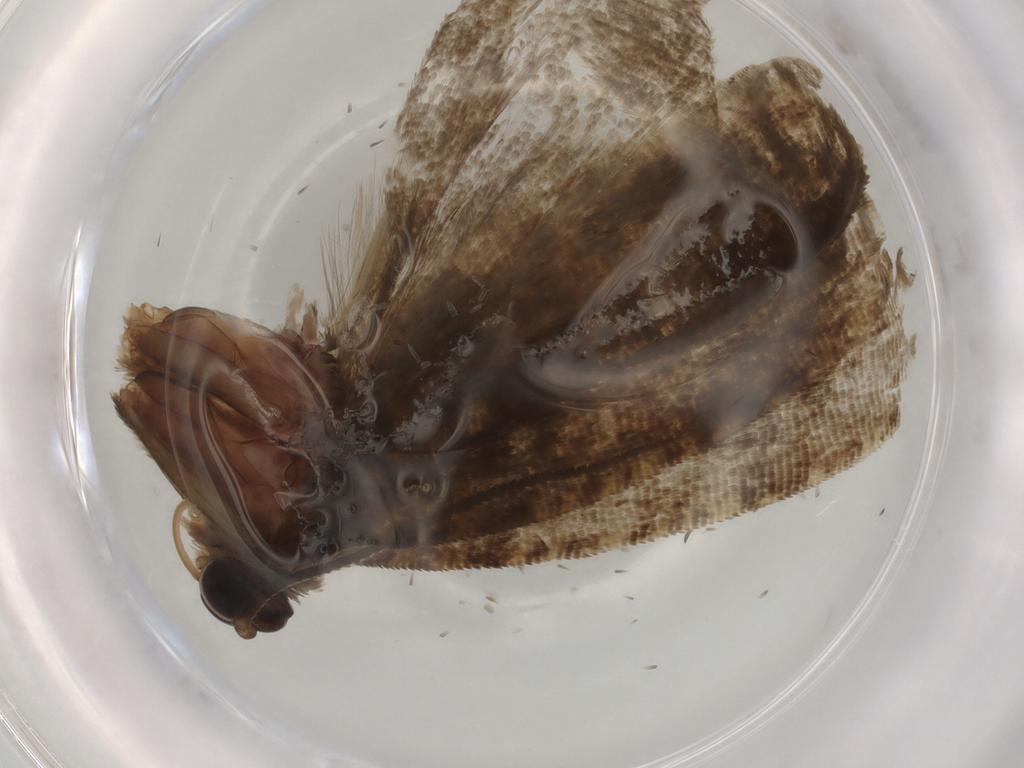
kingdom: Animalia
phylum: Arthropoda
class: Insecta
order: Lepidoptera
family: Tortricidae
